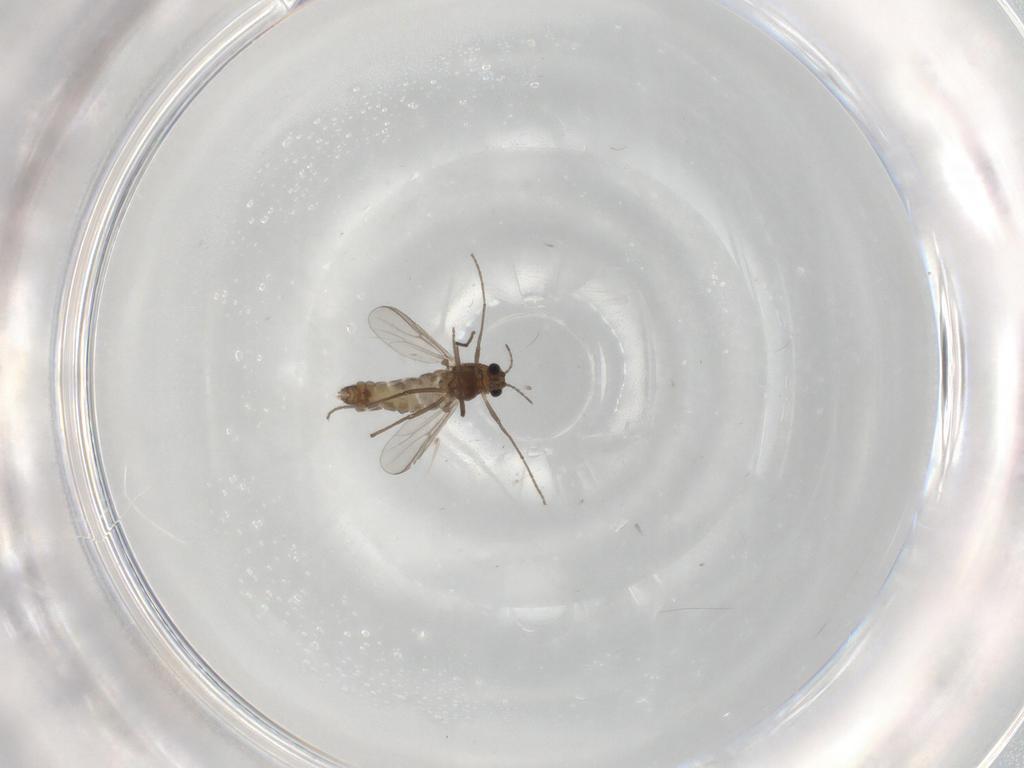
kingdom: Animalia
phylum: Arthropoda
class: Insecta
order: Diptera
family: Chironomidae
